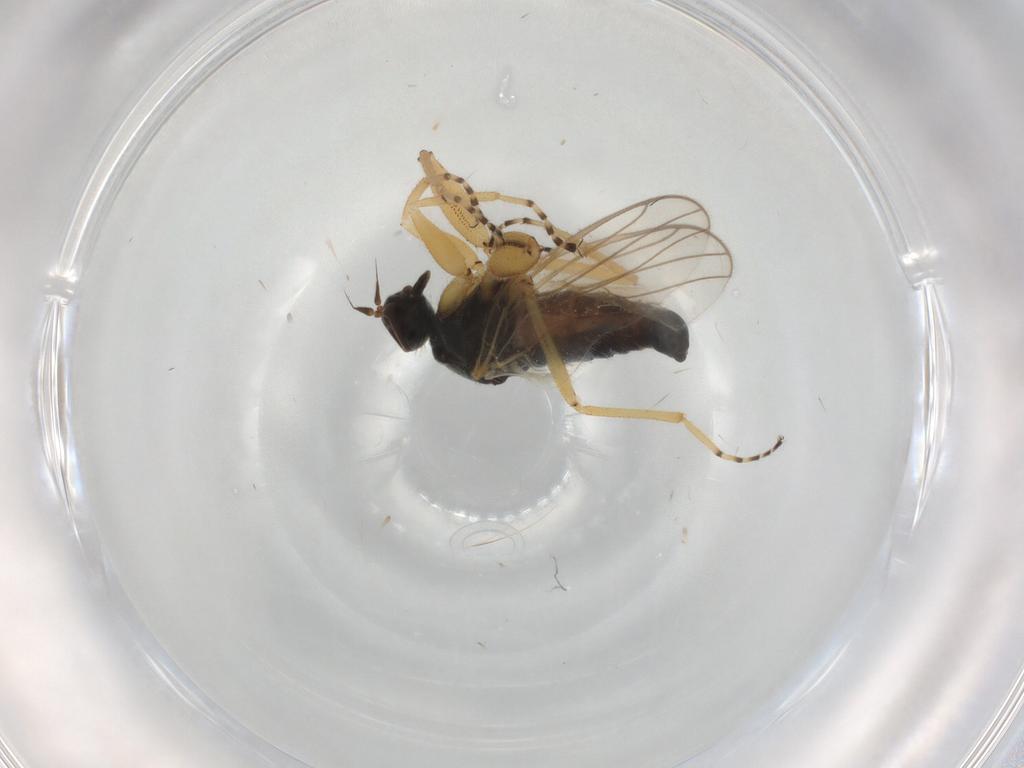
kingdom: Animalia
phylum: Arthropoda
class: Insecta
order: Diptera
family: Hybotidae
